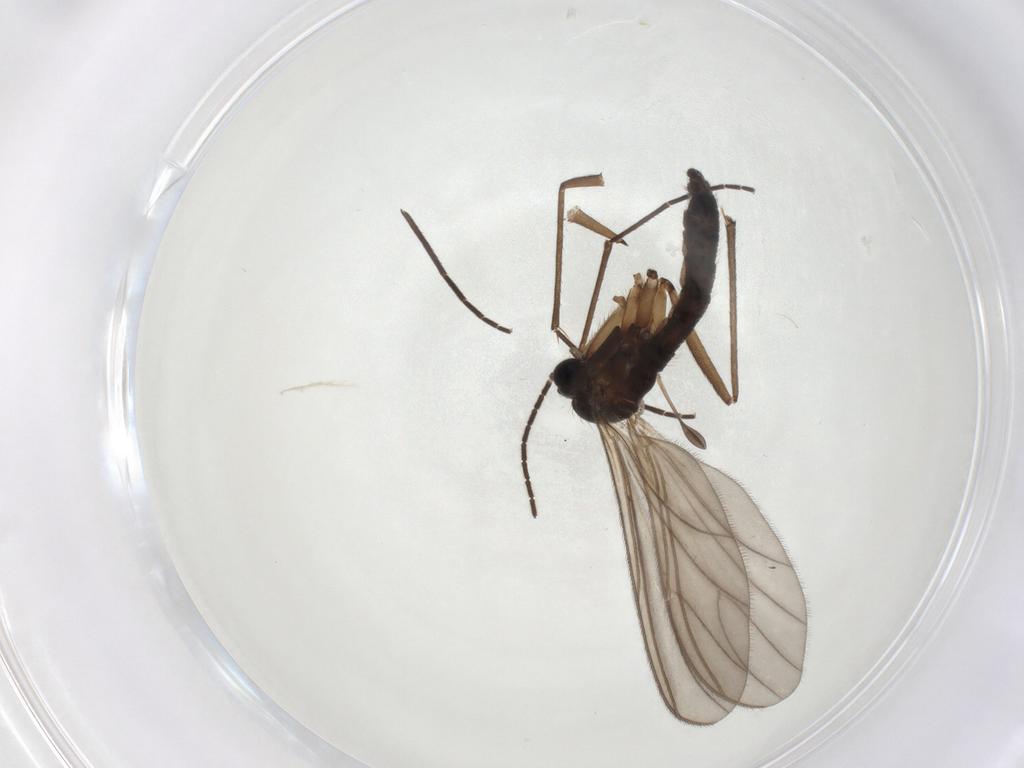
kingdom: Animalia
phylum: Arthropoda
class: Insecta
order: Diptera
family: Sciaridae
